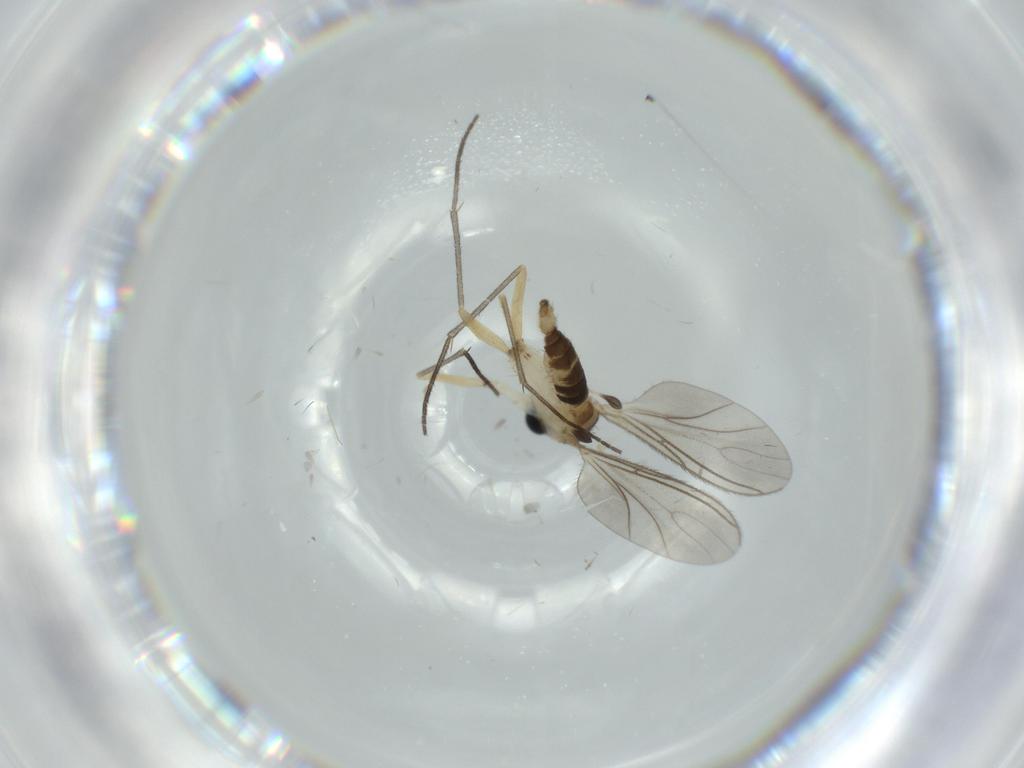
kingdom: Animalia
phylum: Arthropoda
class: Insecta
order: Diptera
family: Sciaridae
